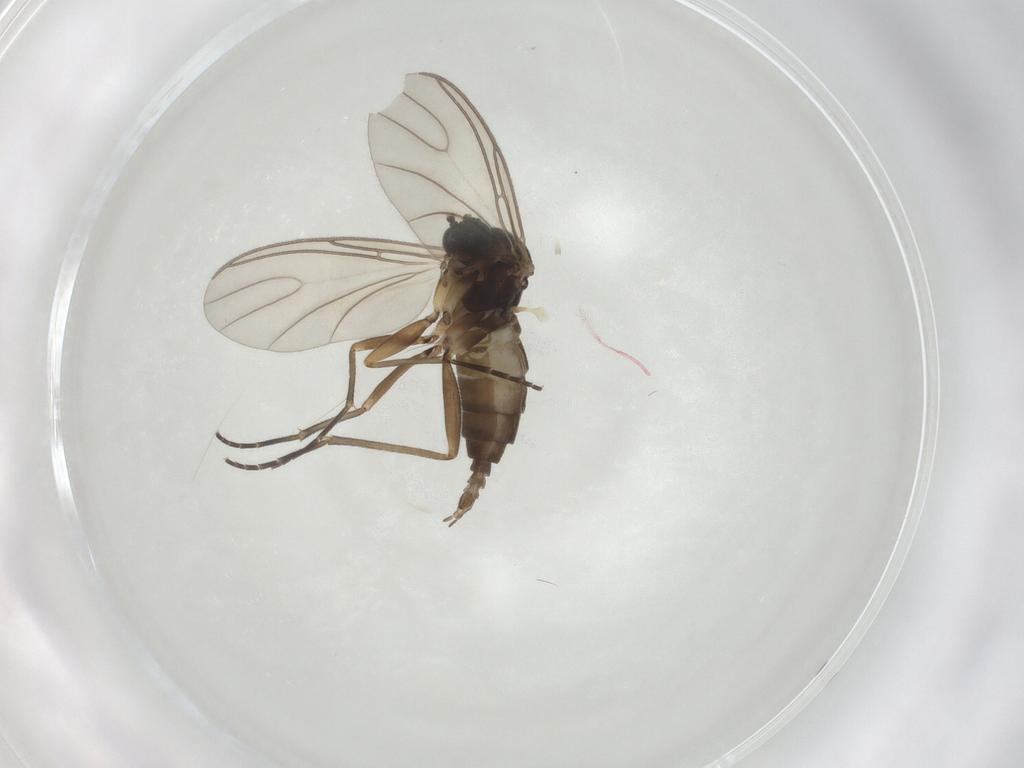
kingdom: Animalia
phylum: Arthropoda
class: Insecta
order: Diptera
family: Sciaridae
